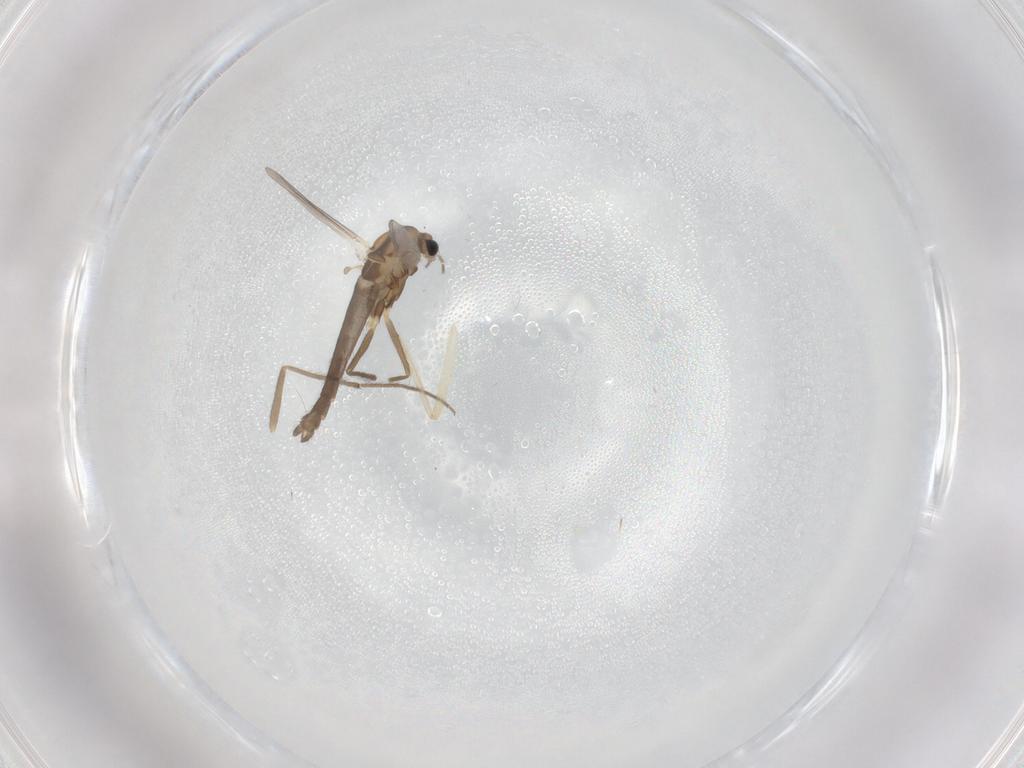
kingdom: Animalia
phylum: Arthropoda
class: Insecta
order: Diptera
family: Chironomidae
